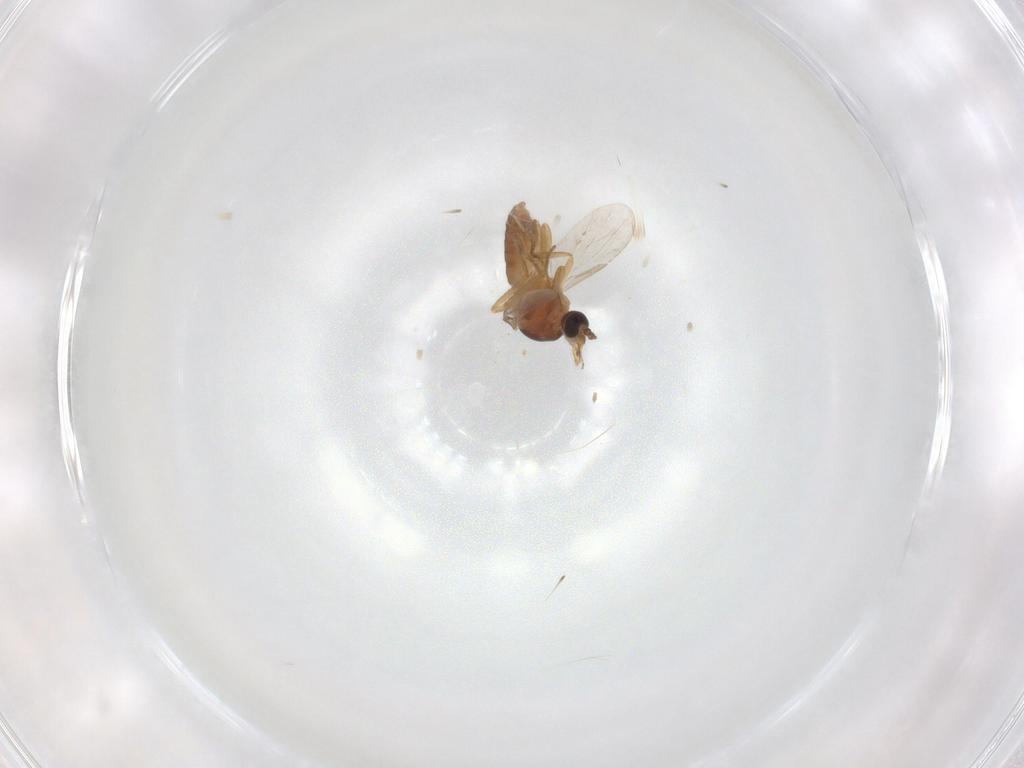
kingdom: Animalia
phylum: Arthropoda
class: Insecta
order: Diptera
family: Ceratopogonidae
